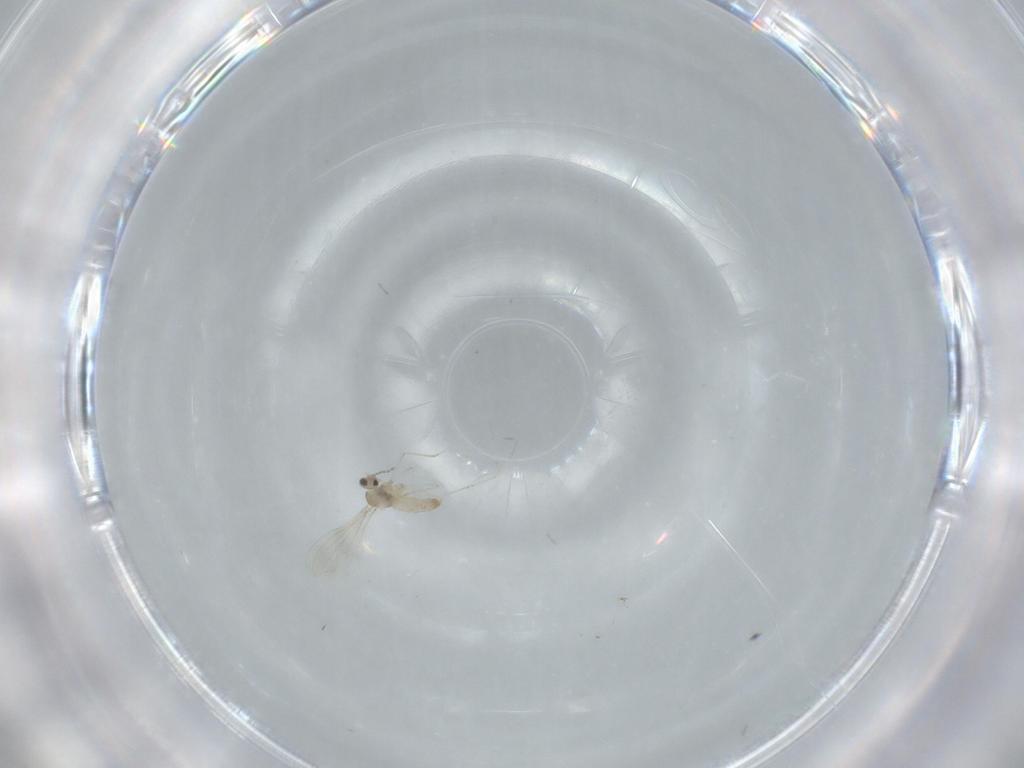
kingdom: Animalia
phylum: Arthropoda
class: Insecta
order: Diptera
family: Cecidomyiidae
